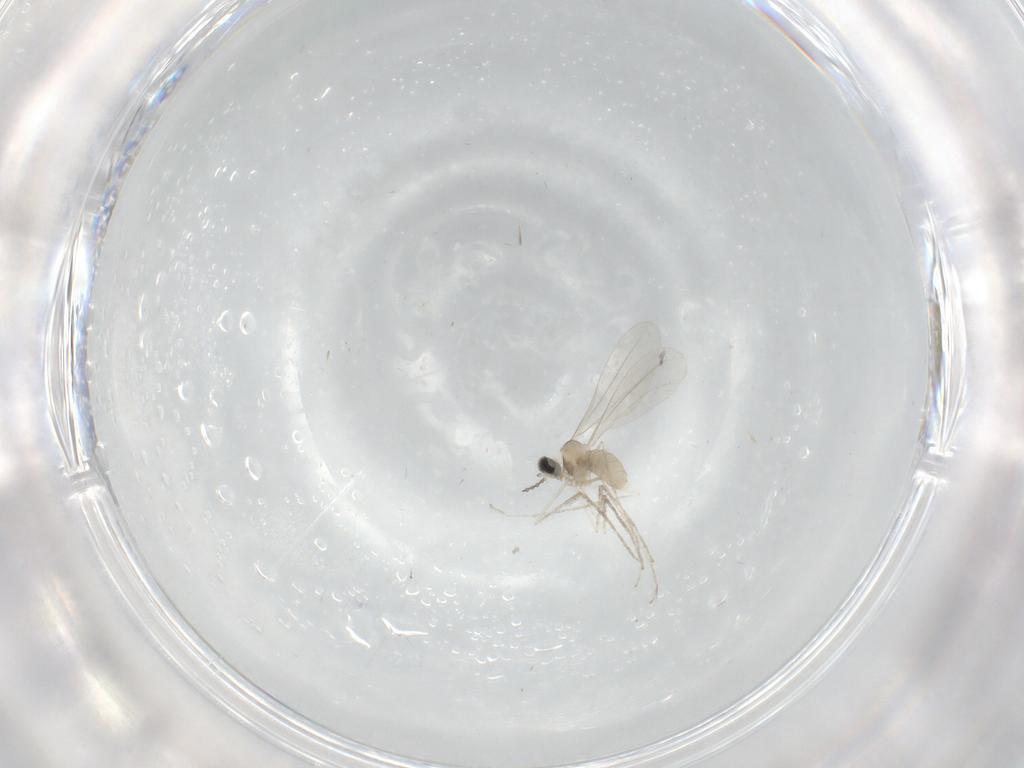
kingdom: Animalia
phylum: Arthropoda
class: Insecta
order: Diptera
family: Cecidomyiidae
